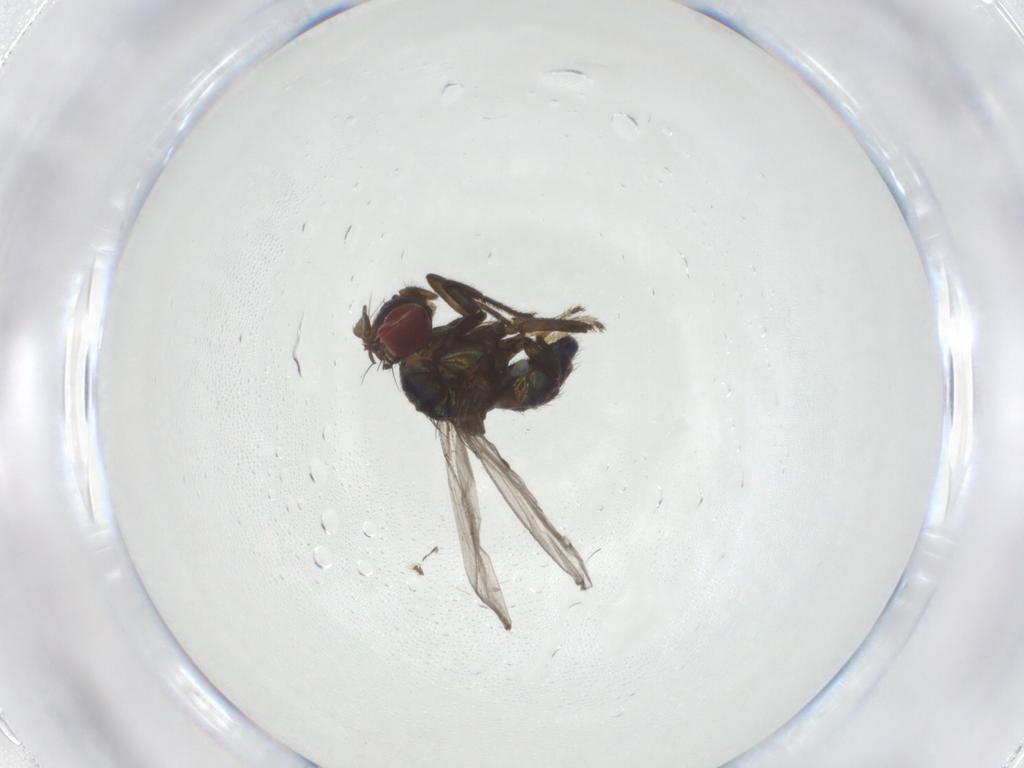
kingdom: Animalia
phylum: Arthropoda
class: Insecta
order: Diptera
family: Ephydridae
